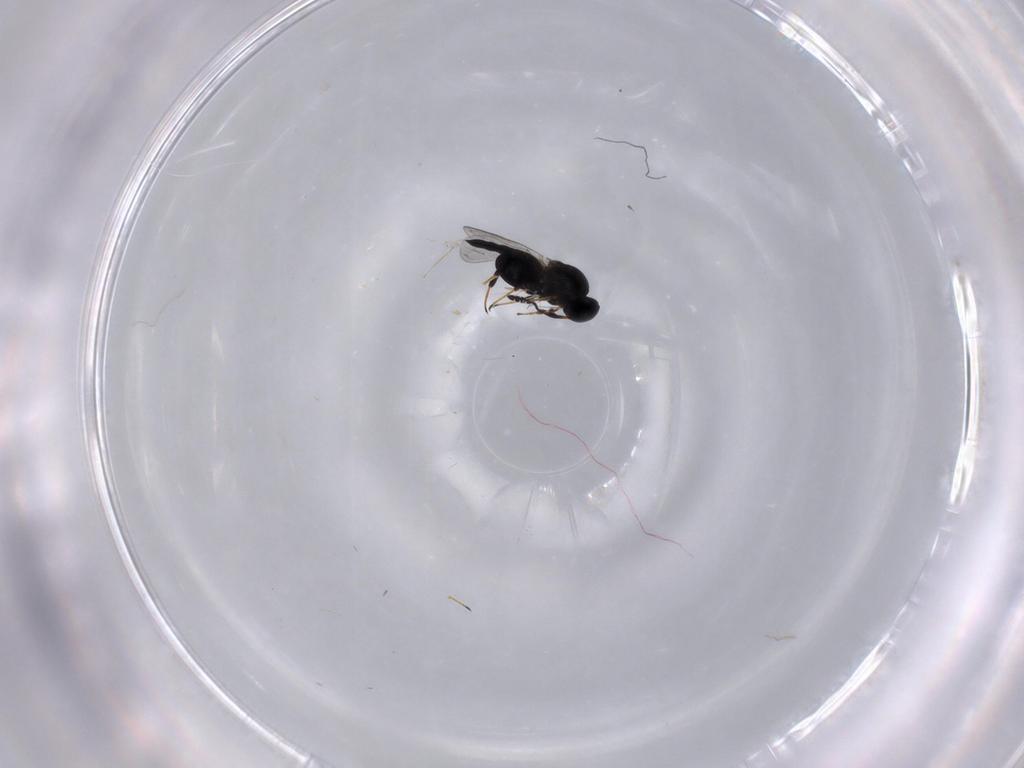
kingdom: Animalia
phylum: Arthropoda
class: Insecta
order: Hymenoptera
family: Platygastridae
